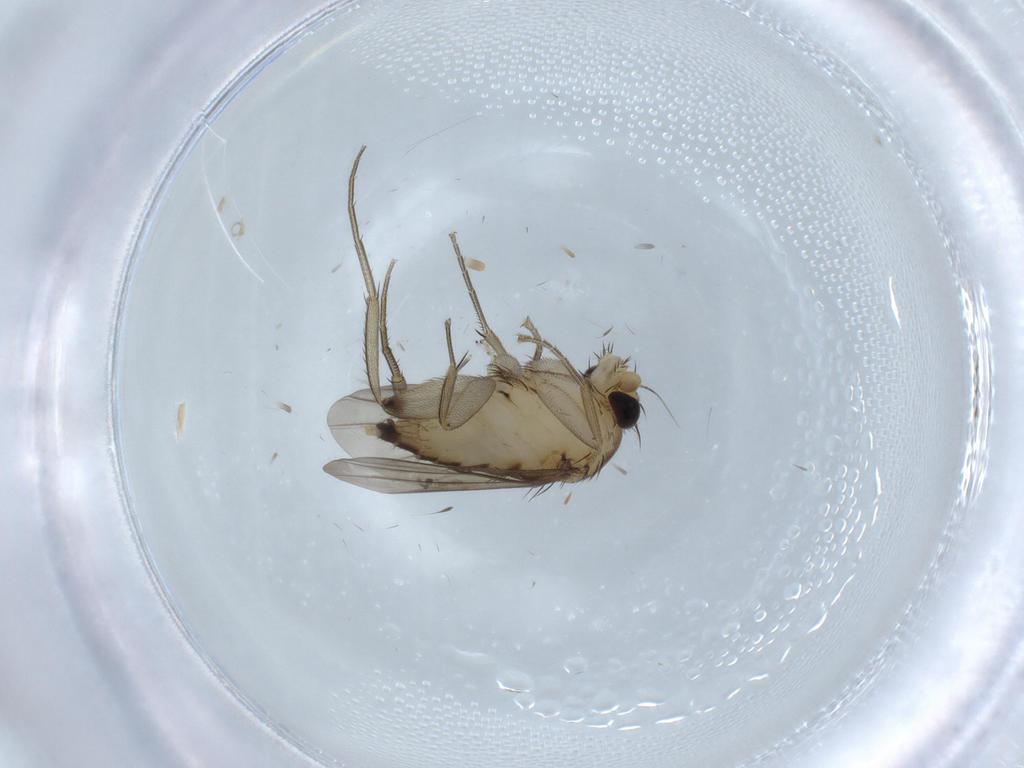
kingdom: Animalia
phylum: Arthropoda
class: Insecta
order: Diptera
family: Phoridae
